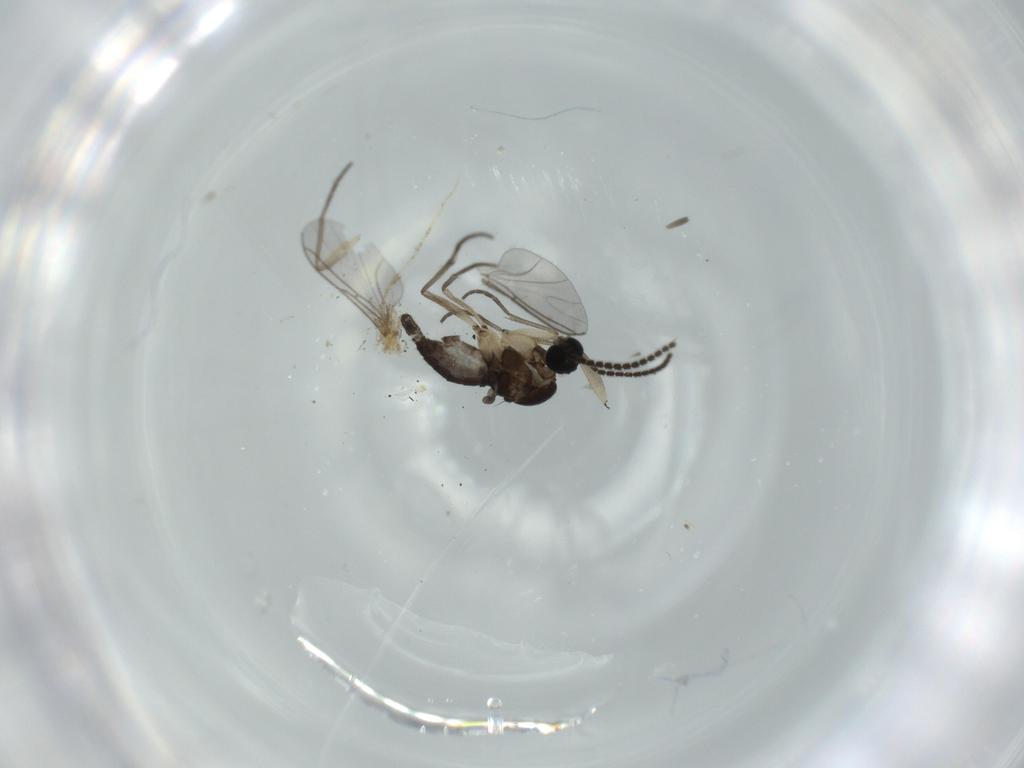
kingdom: Animalia
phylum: Arthropoda
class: Insecta
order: Diptera
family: Sciaridae
